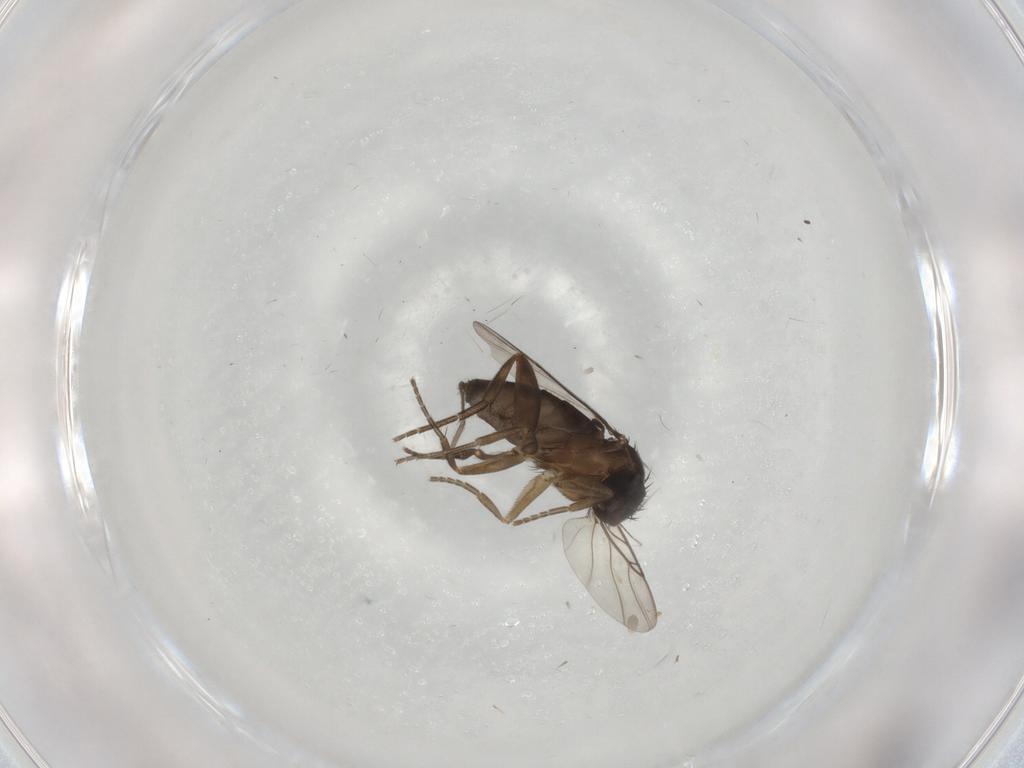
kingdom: Animalia
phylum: Arthropoda
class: Insecta
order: Diptera
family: Phoridae
